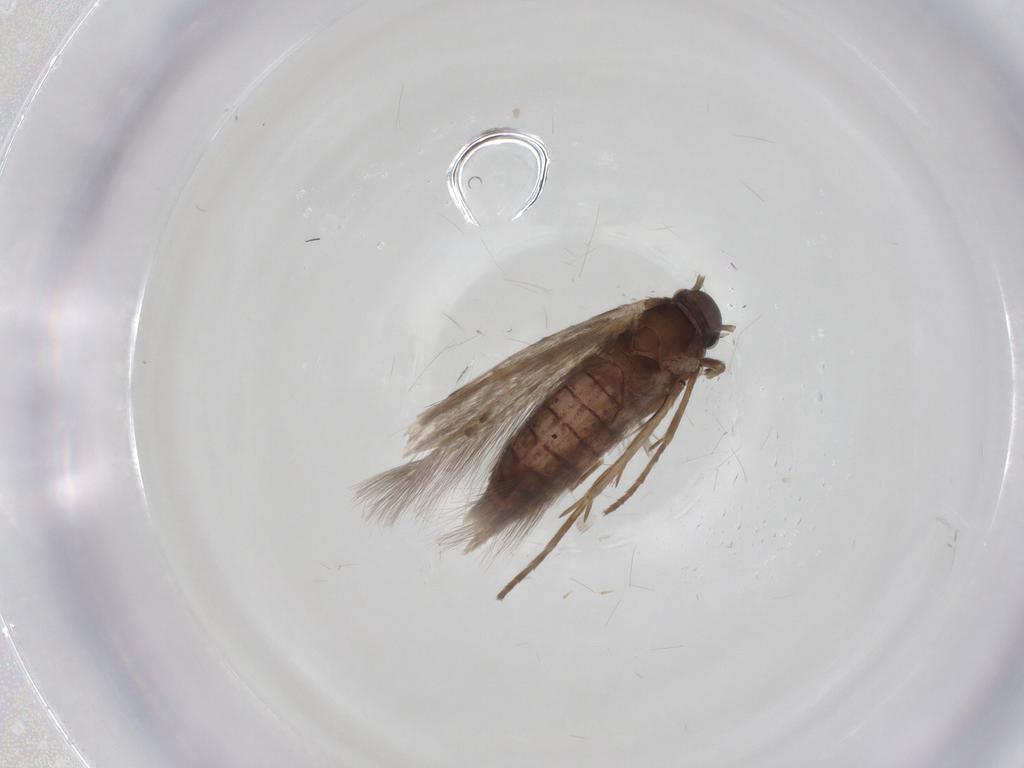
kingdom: Animalia
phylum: Arthropoda
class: Insecta
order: Lepidoptera
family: Scythrididae
